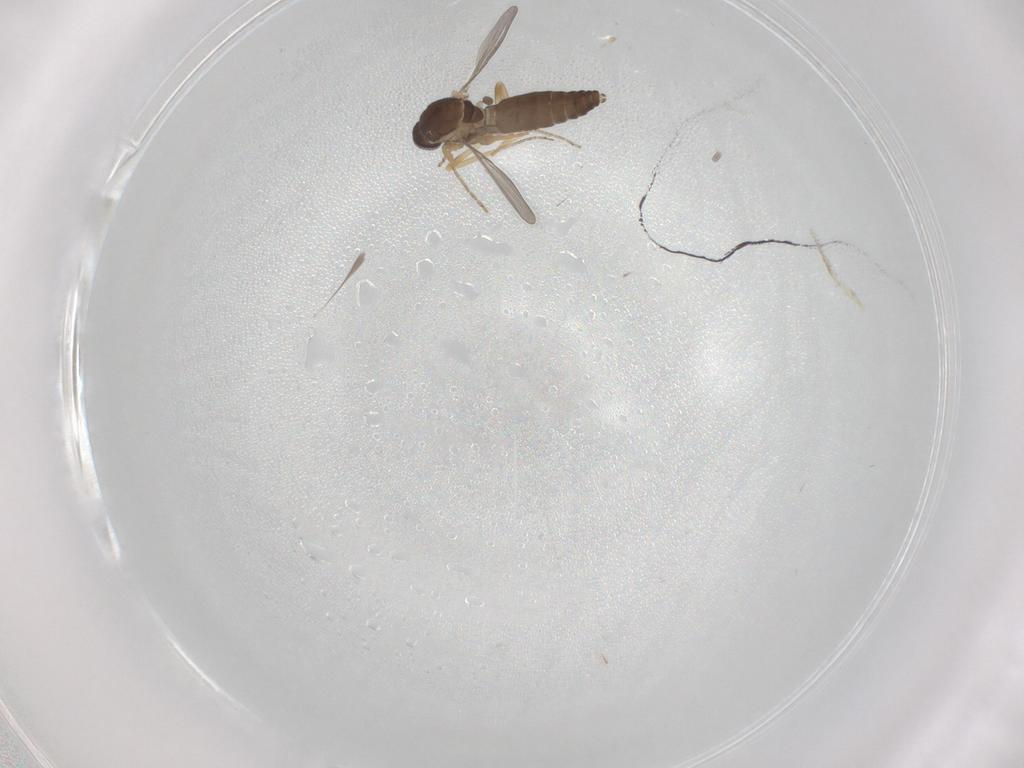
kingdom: Animalia
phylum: Arthropoda
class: Insecta
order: Diptera
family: Ceratopogonidae
